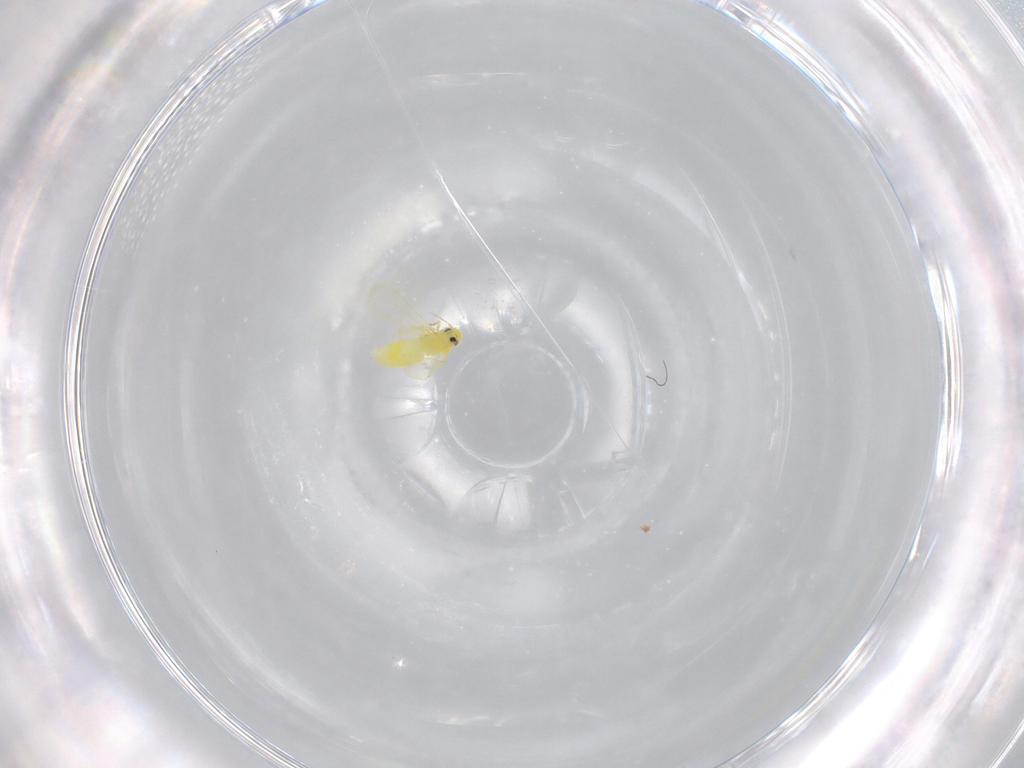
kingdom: Animalia
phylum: Arthropoda
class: Insecta
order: Hemiptera
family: Aleyrodidae
